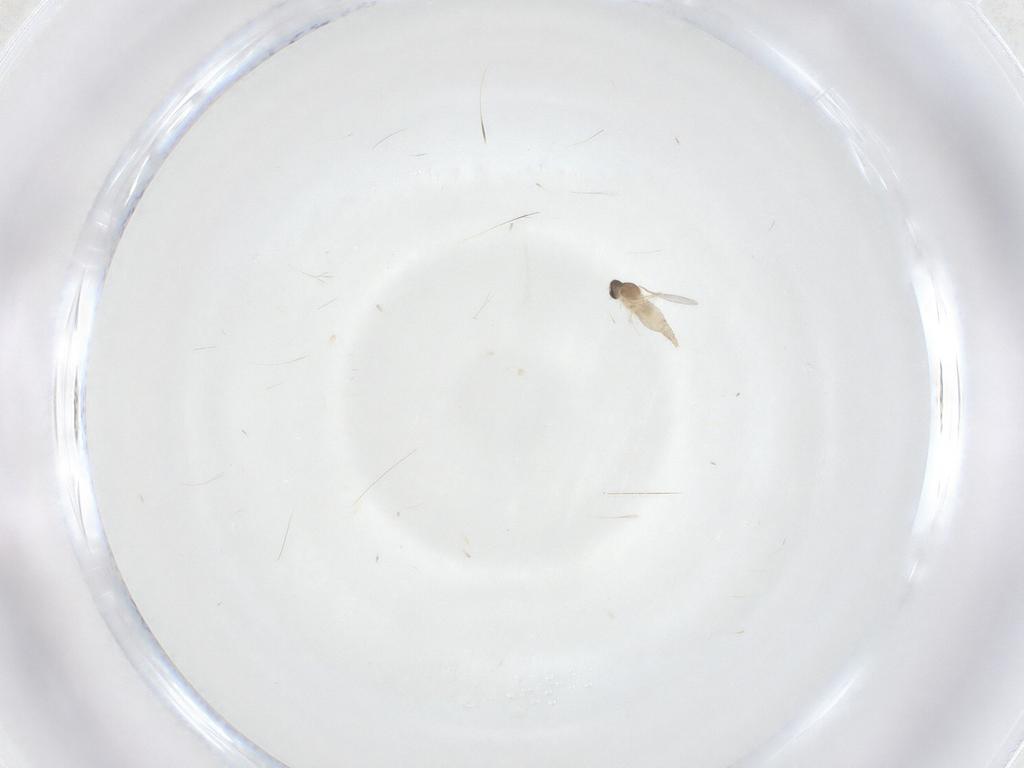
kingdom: Animalia
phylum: Arthropoda
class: Insecta
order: Diptera
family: Cecidomyiidae
